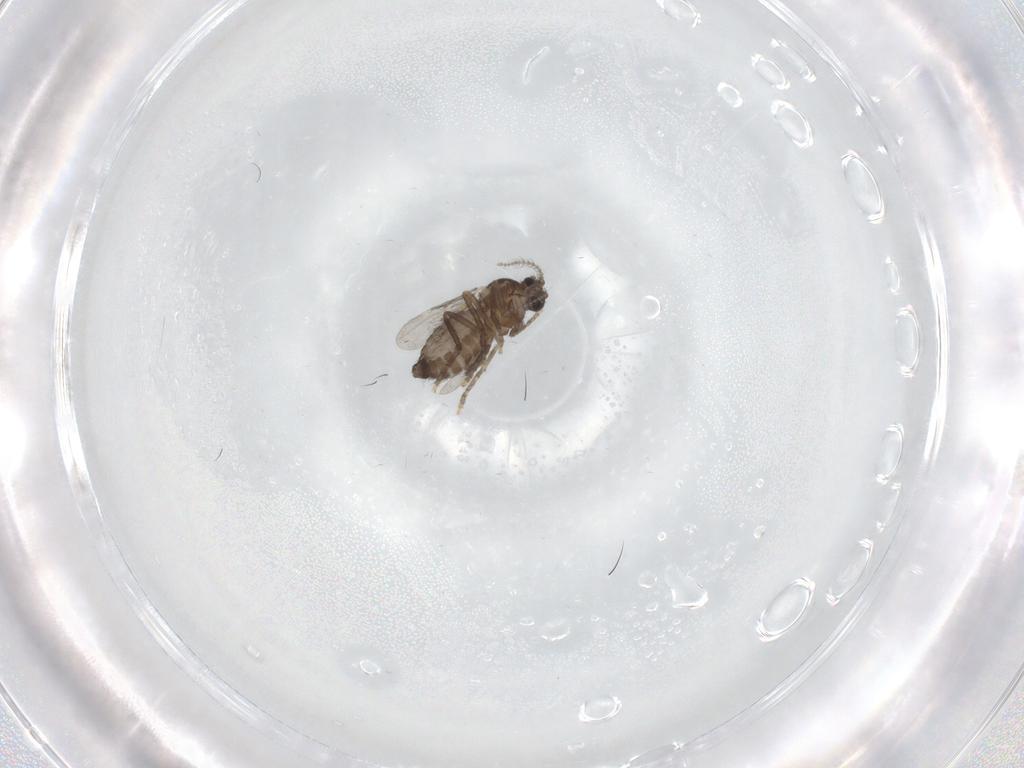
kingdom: Animalia
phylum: Arthropoda
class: Insecta
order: Diptera
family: Ceratopogonidae
